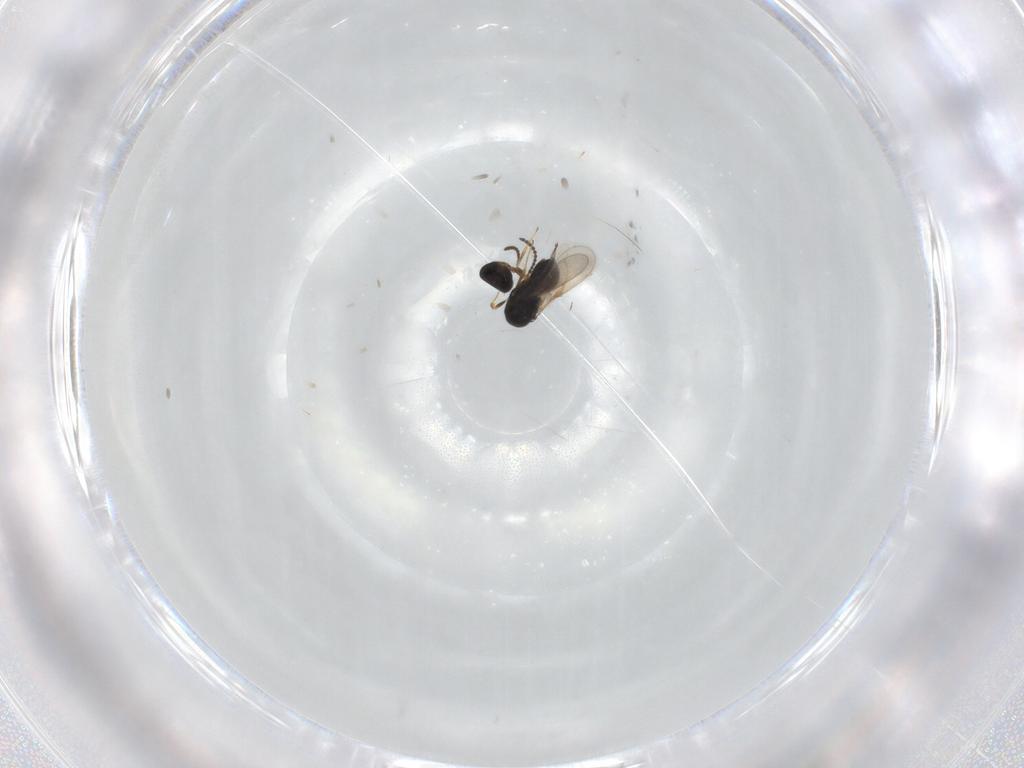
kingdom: Animalia
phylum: Arthropoda
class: Insecta
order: Hymenoptera
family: Scelionidae
